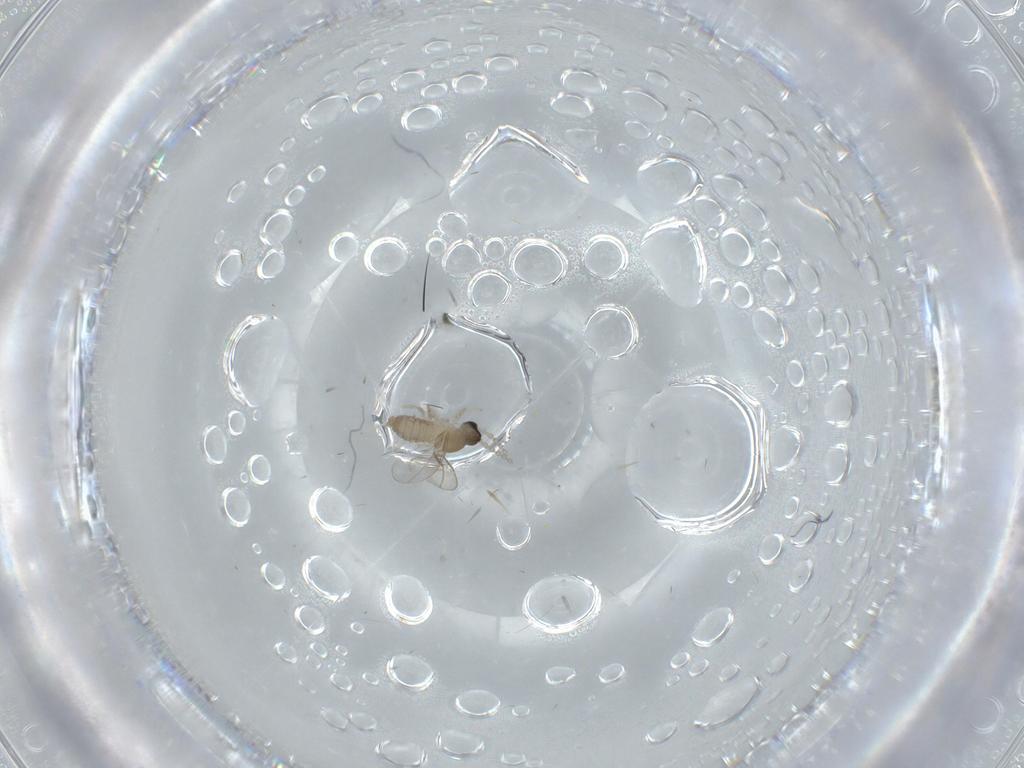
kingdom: Animalia
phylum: Arthropoda
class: Insecta
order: Diptera
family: Cecidomyiidae
